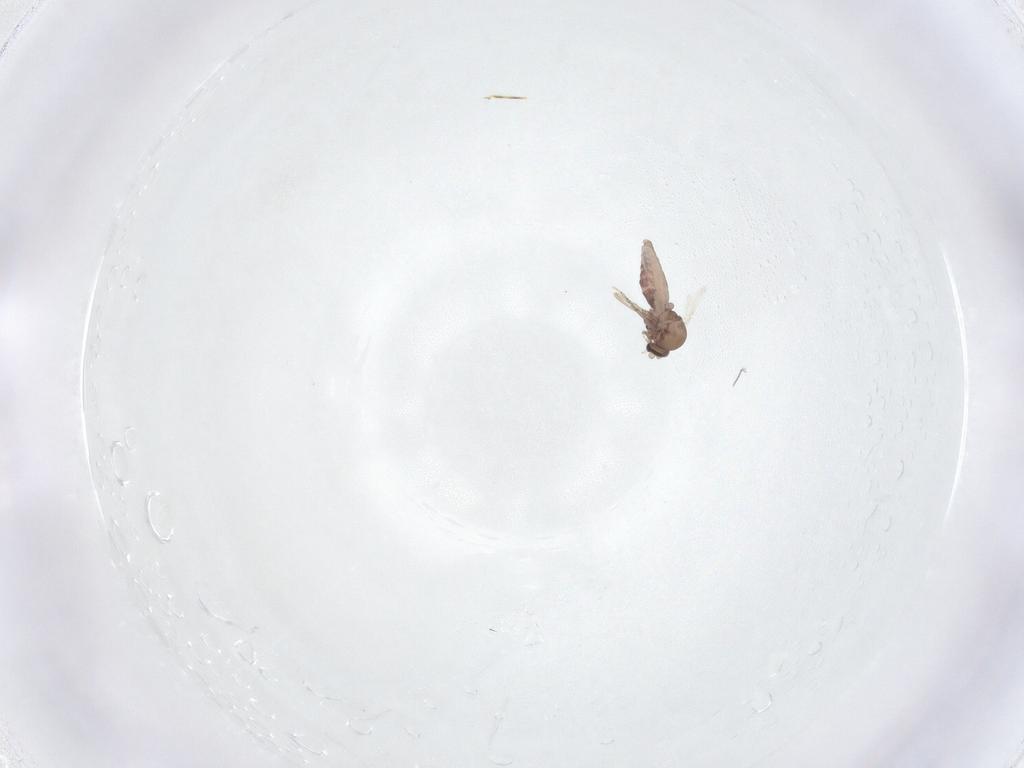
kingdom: Animalia
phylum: Arthropoda
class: Insecta
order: Diptera
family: Ceratopogonidae
